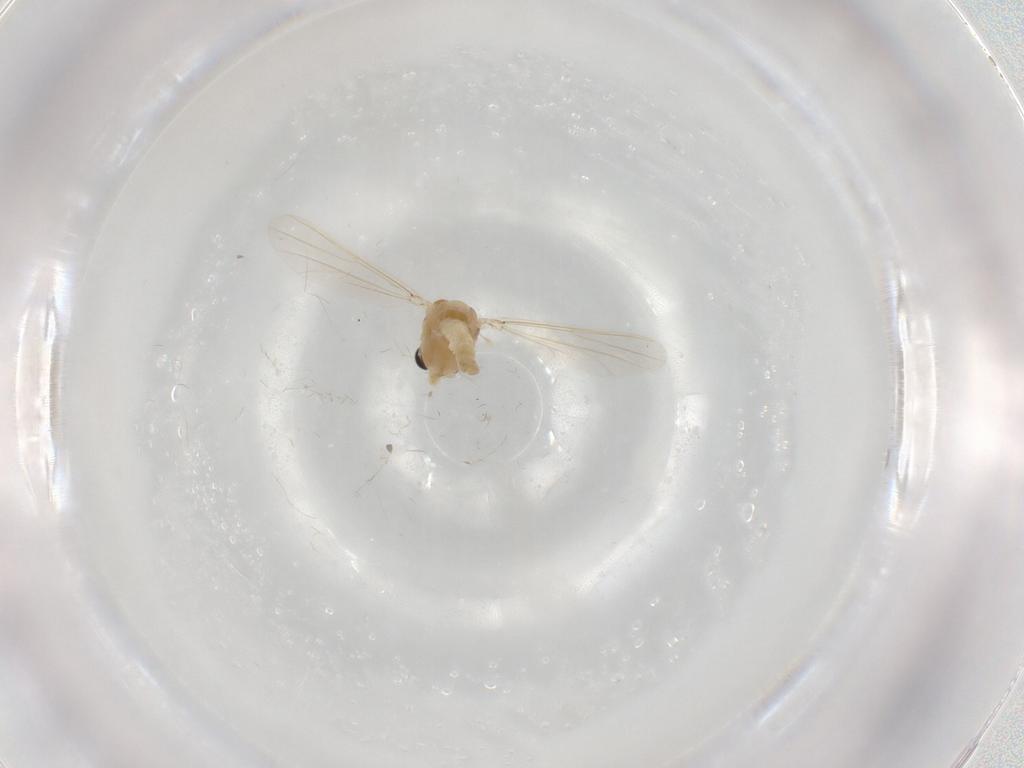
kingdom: Animalia
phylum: Arthropoda
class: Insecta
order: Diptera
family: Chironomidae
